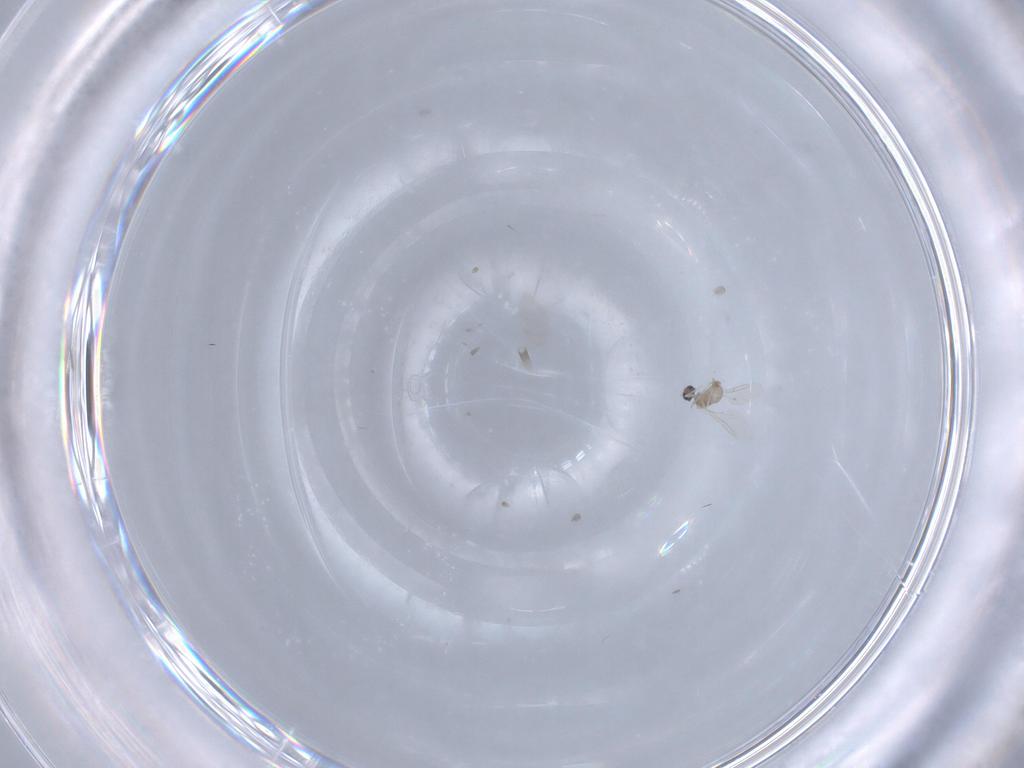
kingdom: Animalia
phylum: Arthropoda
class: Insecta
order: Diptera
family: Cecidomyiidae
